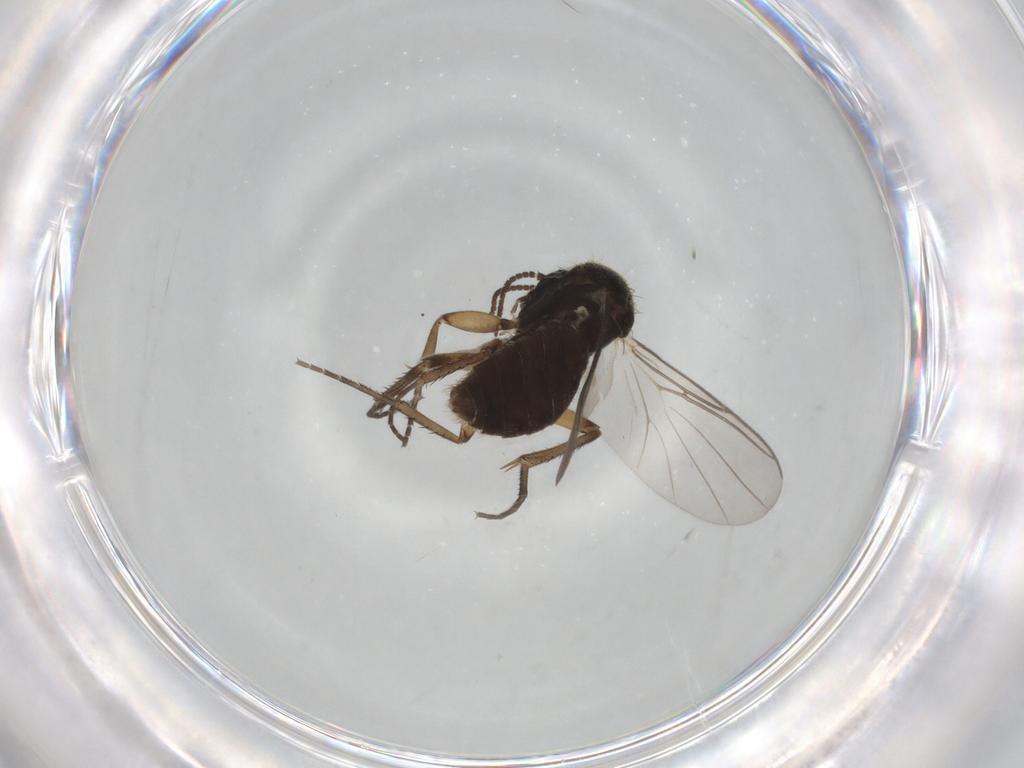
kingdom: Animalia
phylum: Arthropoda
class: Insecta
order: Diptera
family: Mycetophilidae
